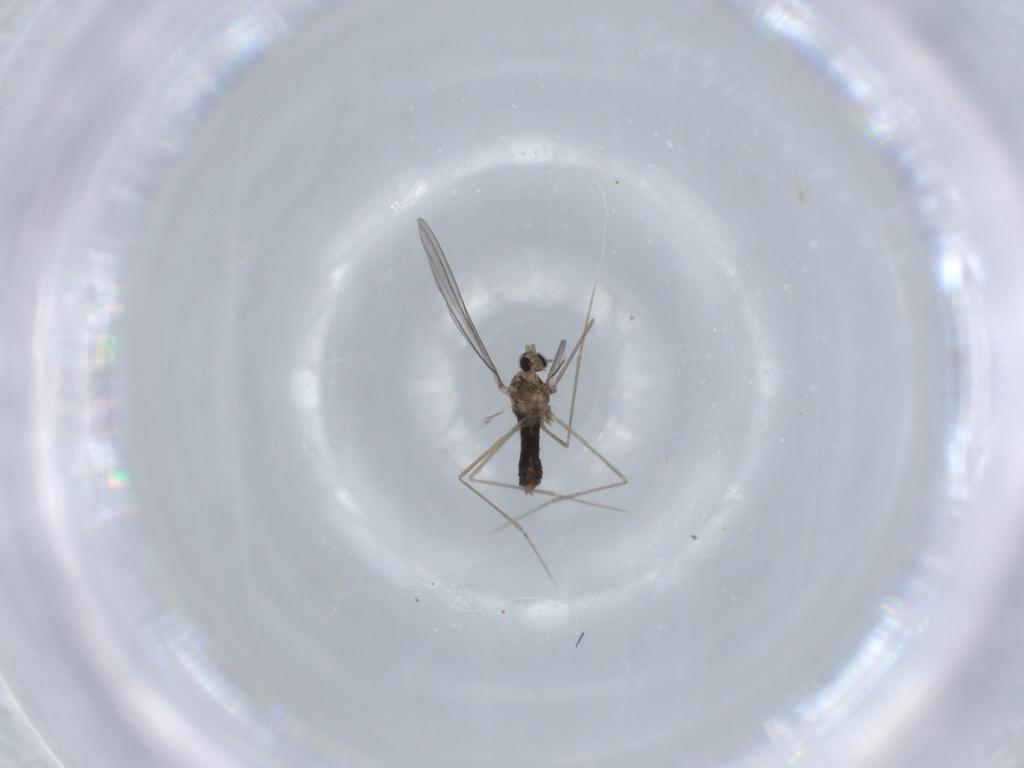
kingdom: Animalia
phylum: Arthropoda
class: Insecta
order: Diptera
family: Cecidomyiidae
